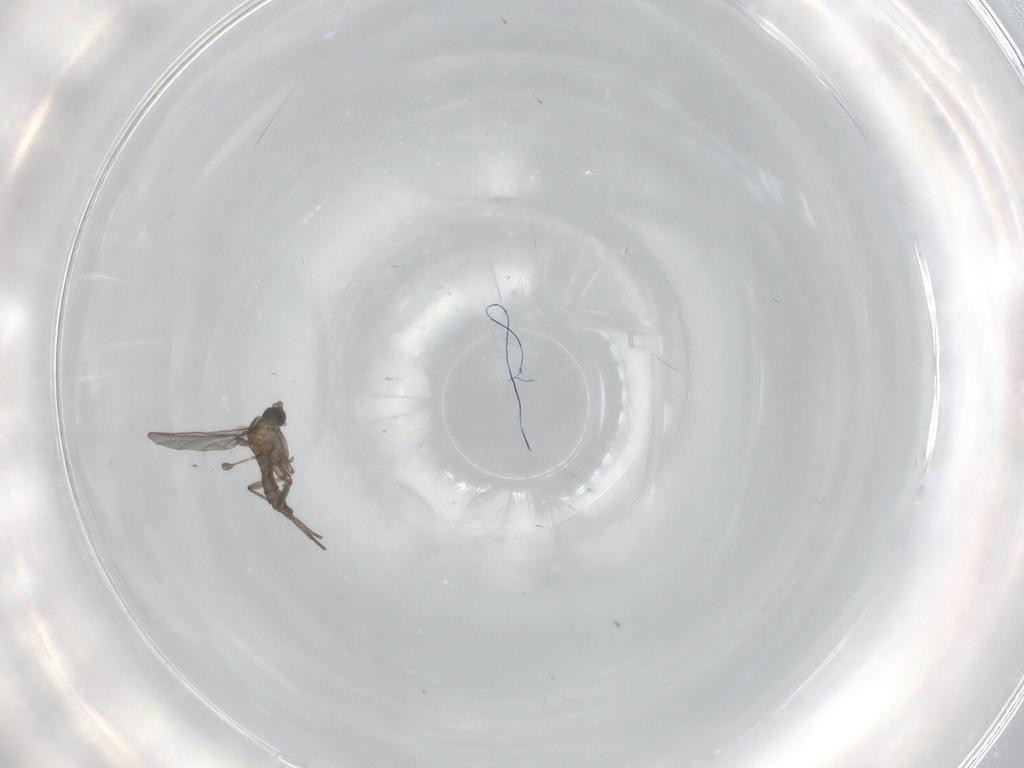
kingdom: Animalia
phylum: Arthropoda
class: Insecta
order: Diptera
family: Sciaridae
